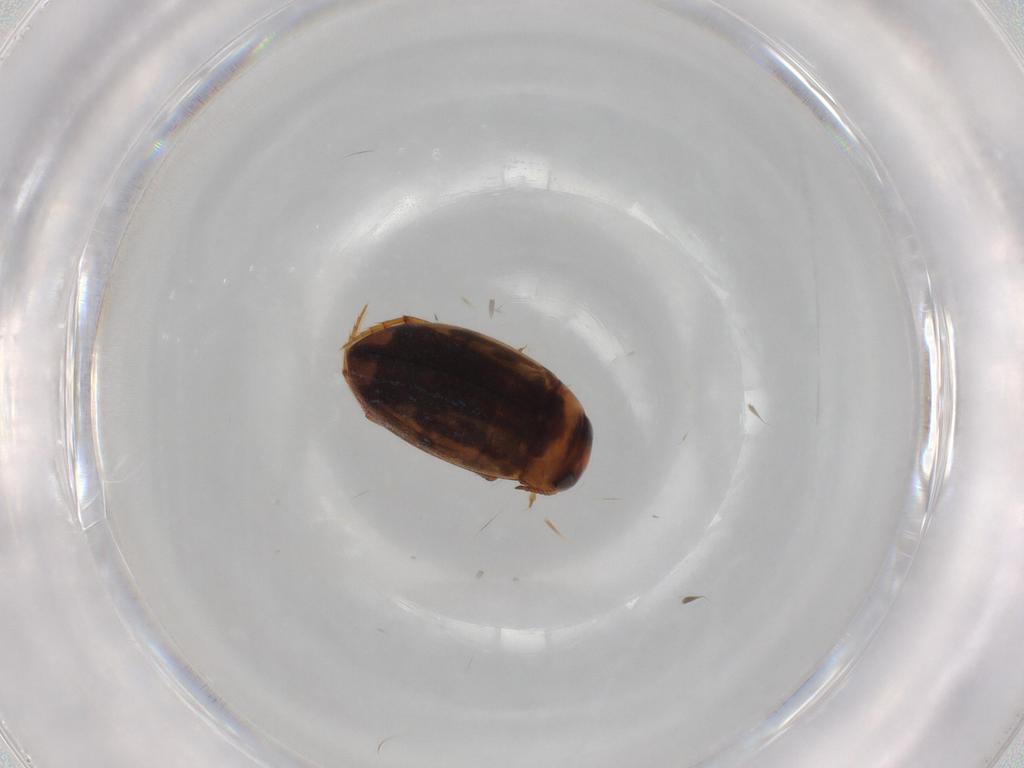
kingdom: Animalia
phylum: Arthropoda
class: Insecta
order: Coleoptera
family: Dytiscidae
